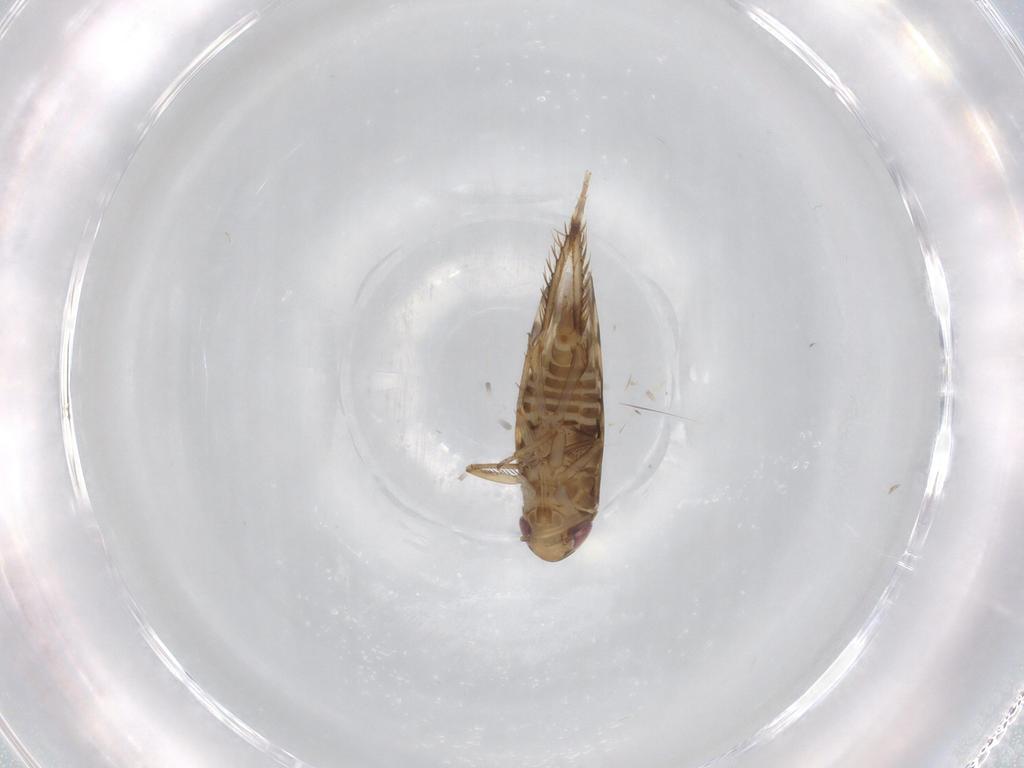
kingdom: Animalia
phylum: Arthropoda
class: Insecta
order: Hemiptera
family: Cicadellidae
